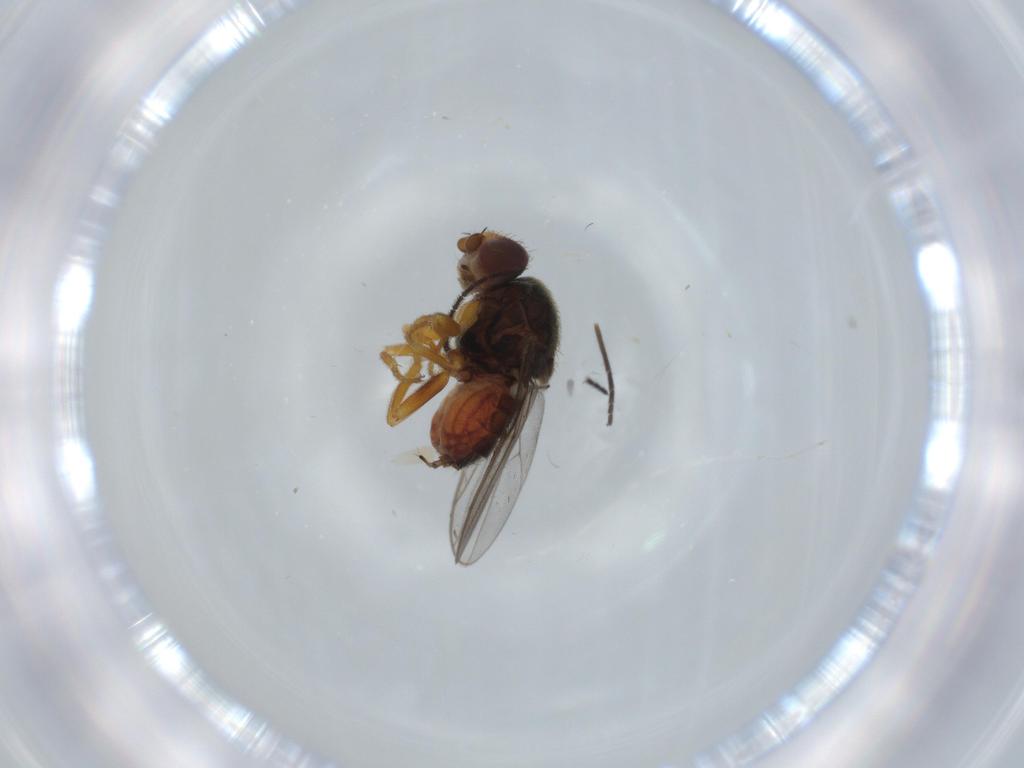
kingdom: Animalia
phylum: Arthropoda
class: Insecta
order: Diptera
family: Chloropidae
